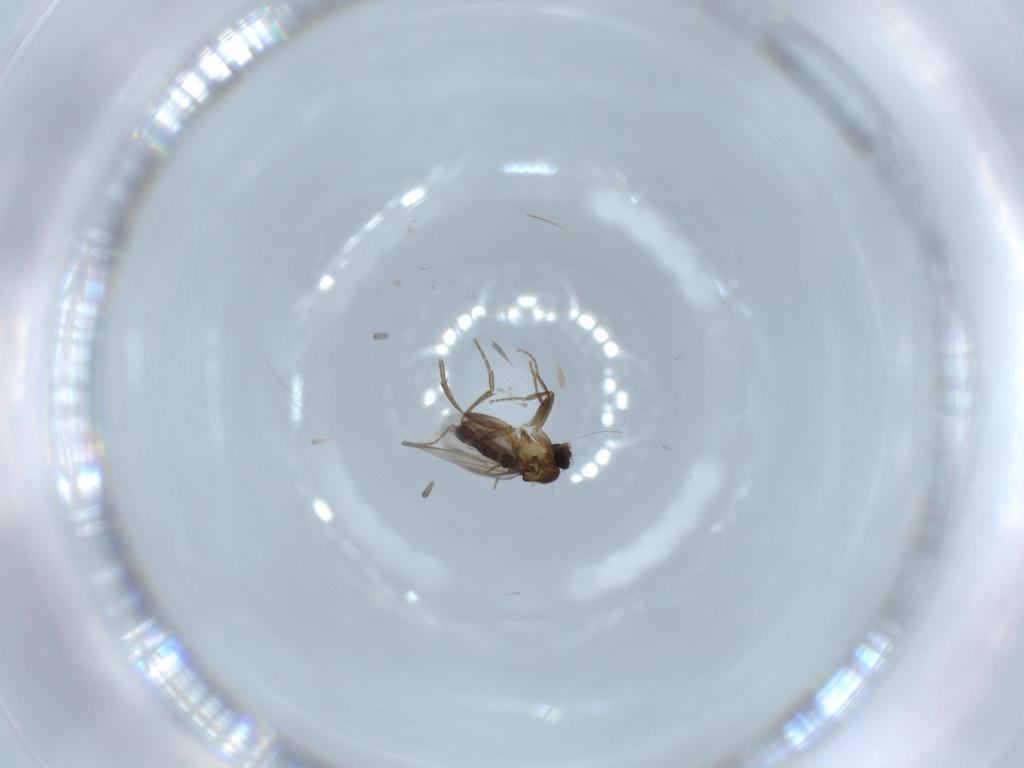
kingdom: Animalia
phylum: Arthropoda
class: Insecta
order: Diptera
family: Phoridae
